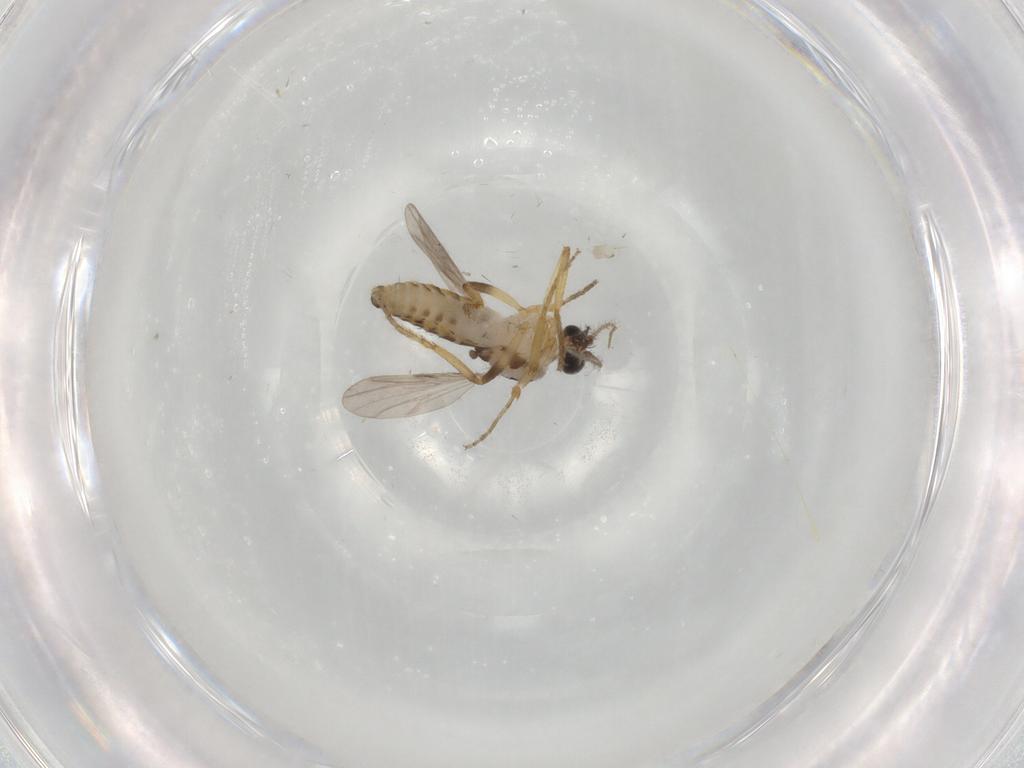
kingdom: Animalia
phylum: Arthropoda
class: Insecta
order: Diptera
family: Ceratopogonidae
